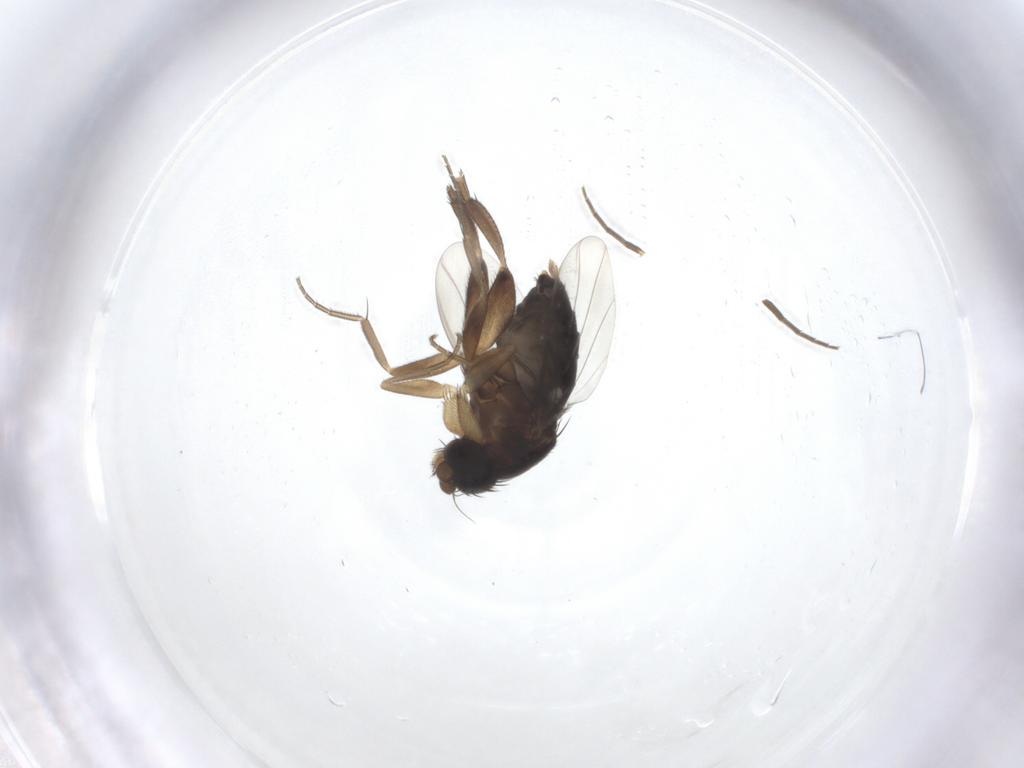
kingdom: Animalia
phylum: Arthropoda
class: Insecta
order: Diptera
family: Phoridae
